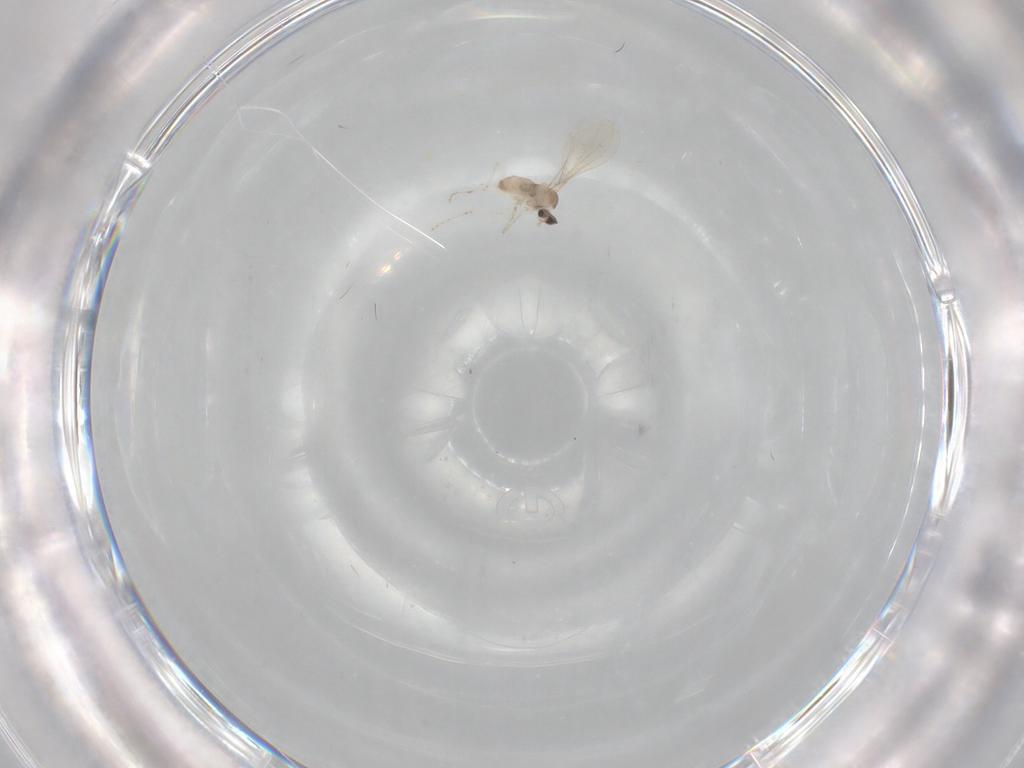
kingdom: Animalia
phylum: Arthropoda
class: Insecta
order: Diptera
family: Cecidomyiidae
